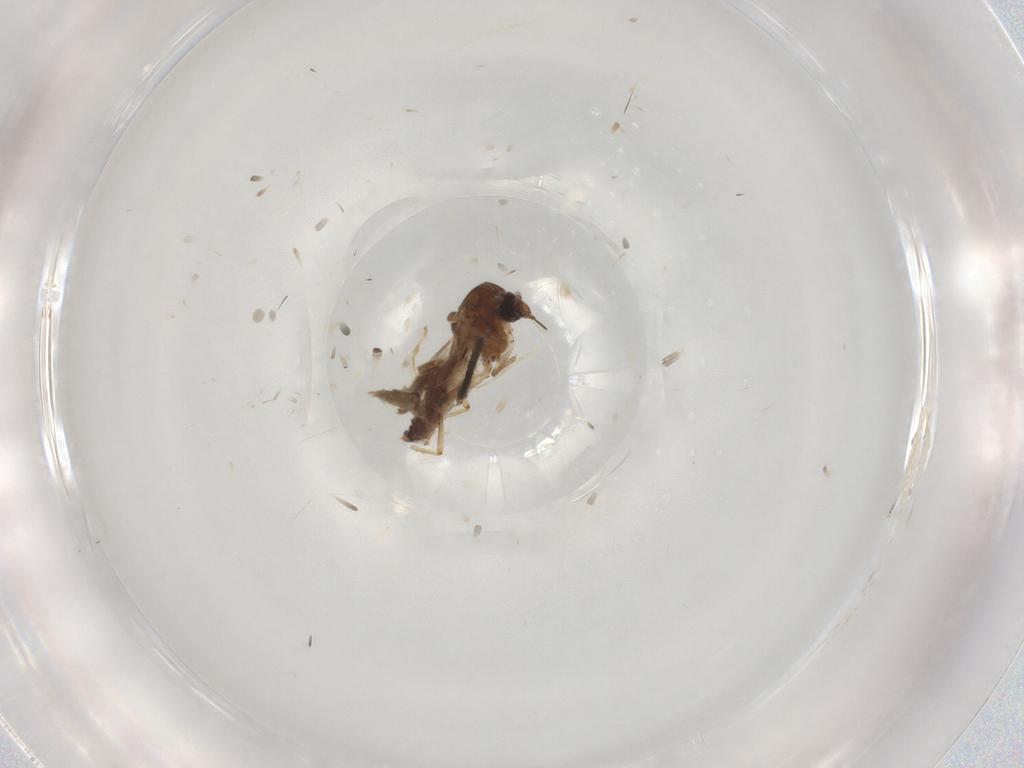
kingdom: Animalia
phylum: Arthropoda
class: Insecta
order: Diptera
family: Ceratopogonidae
